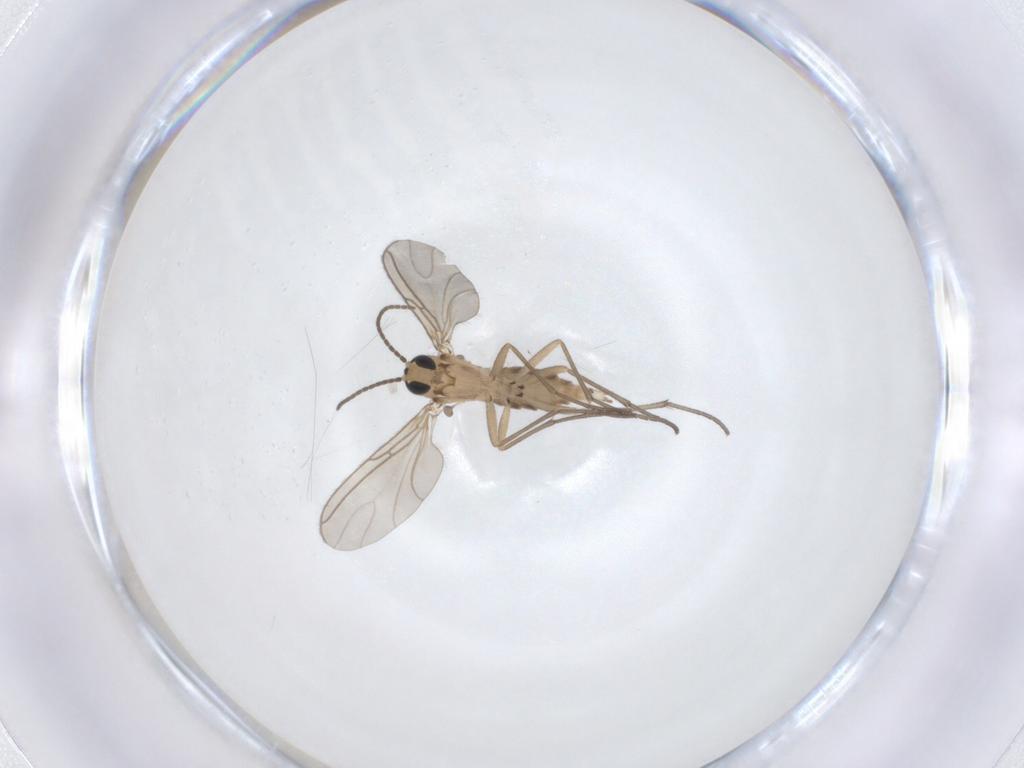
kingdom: Animalia
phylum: Arthropoda
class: Insecta
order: Diptera
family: Sciaridae
